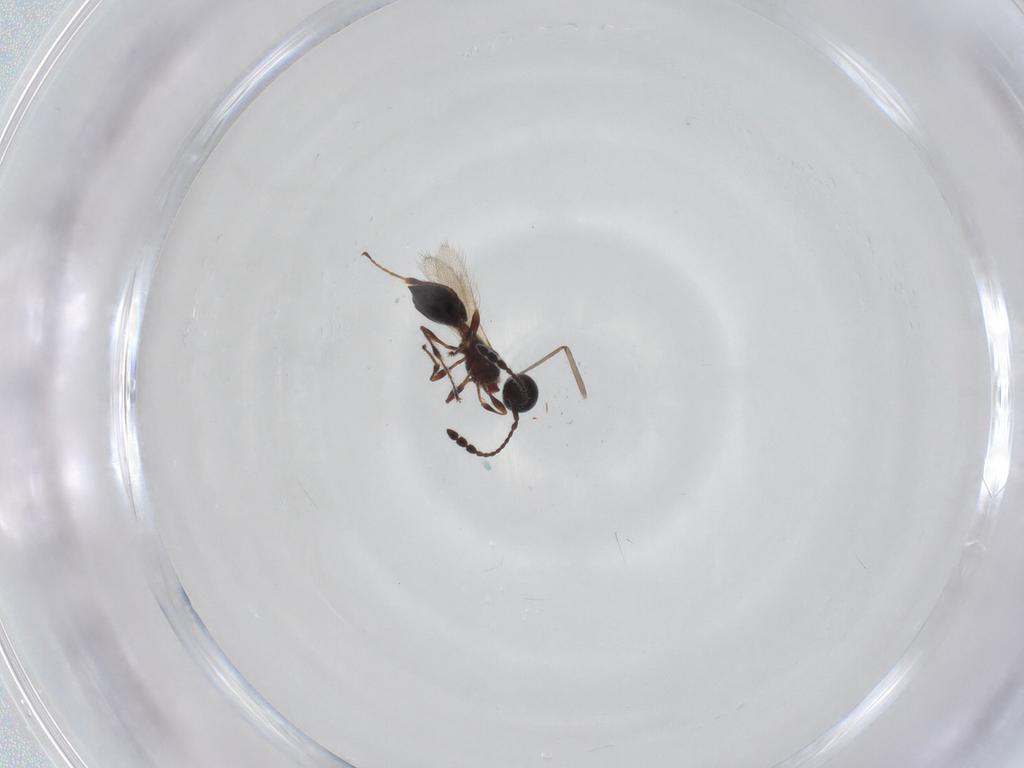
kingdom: Animalia
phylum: Arthropoda
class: Insecta
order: Hymenoptera
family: Diapriidae
